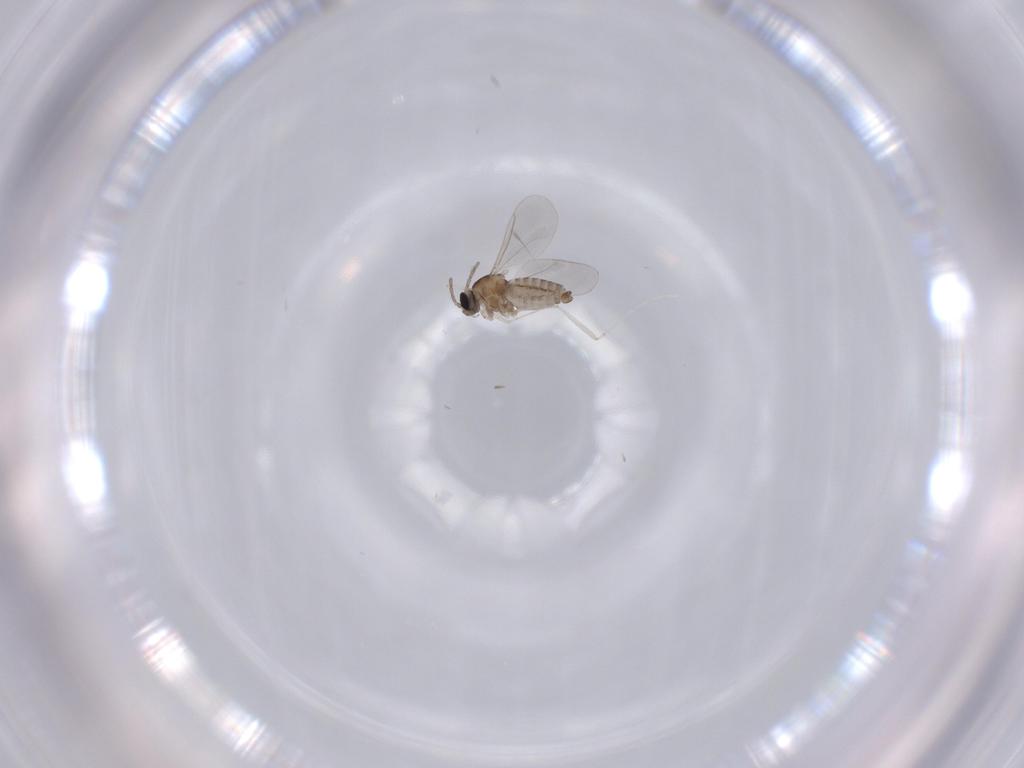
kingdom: Animalia
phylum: Arthropoda
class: Insecta
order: Diptera
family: Cecidomyiidae
